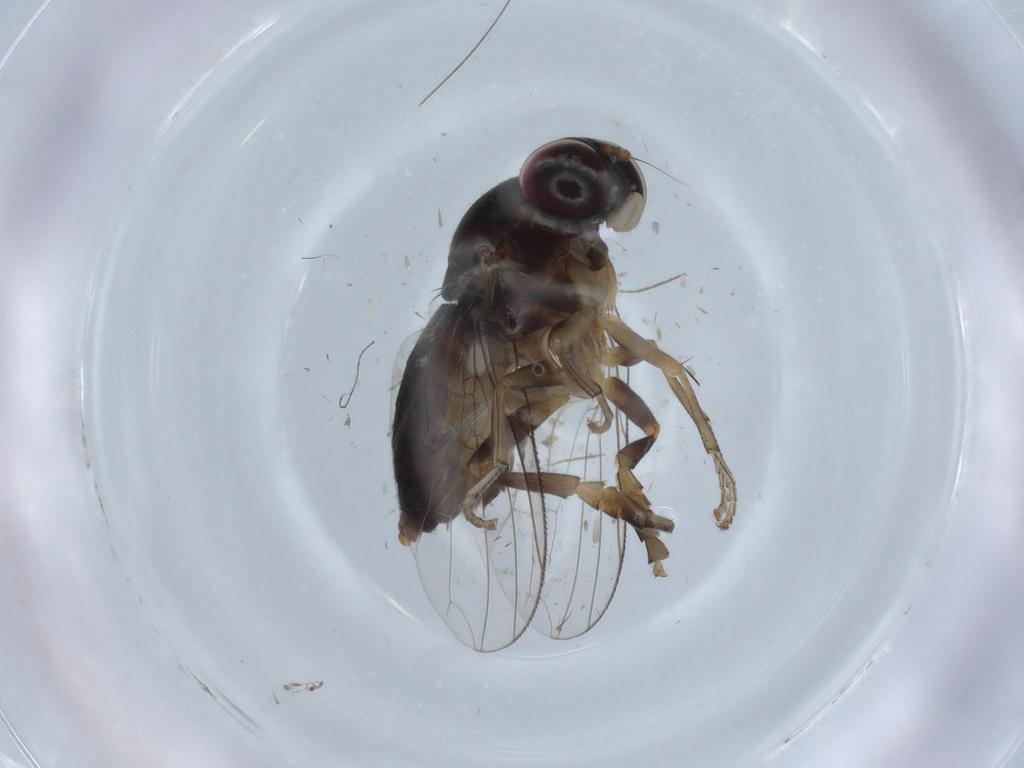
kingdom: Animalia
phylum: Arthropoda
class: Insecta
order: Diptera
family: Platypezidae
